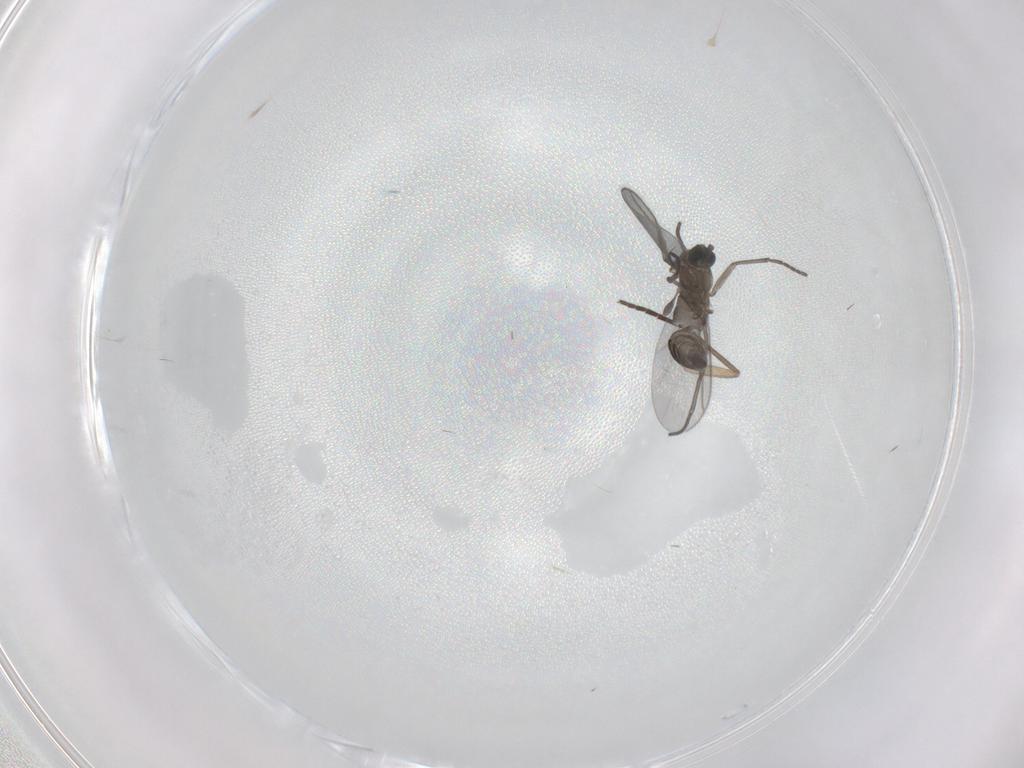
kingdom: Animalia
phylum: Arthropoda
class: Insecta
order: Diptera
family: Sciaridae
